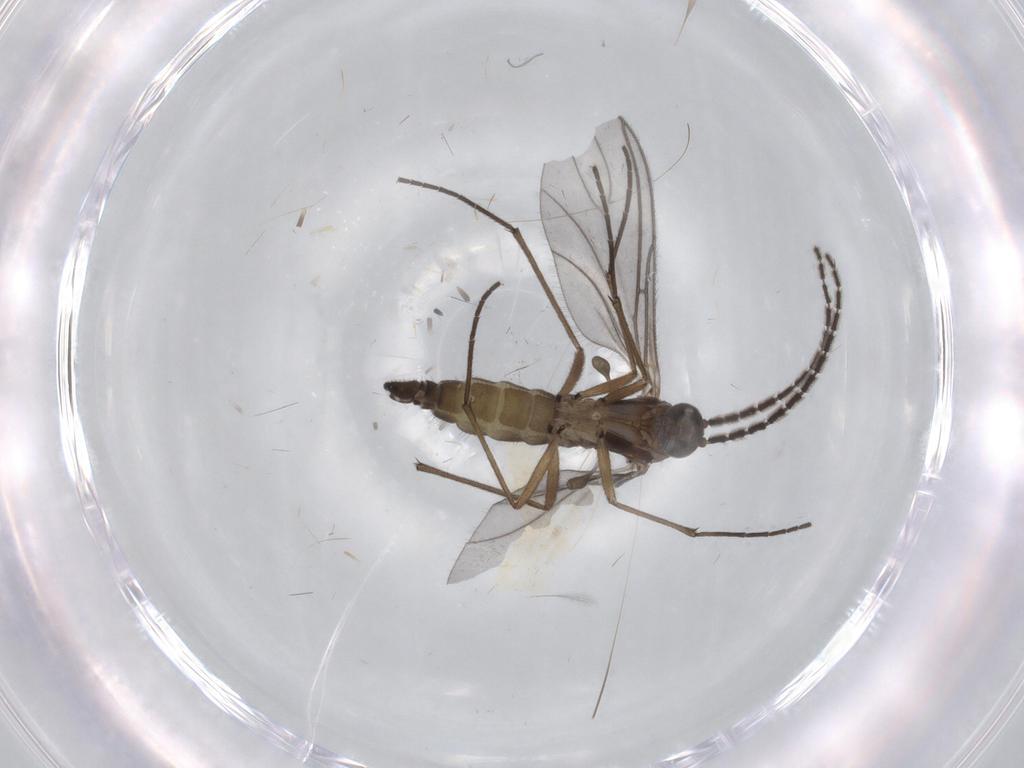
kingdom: Animalia
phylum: Arthropoda
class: Insecta
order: Diptera
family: Sciaridae
